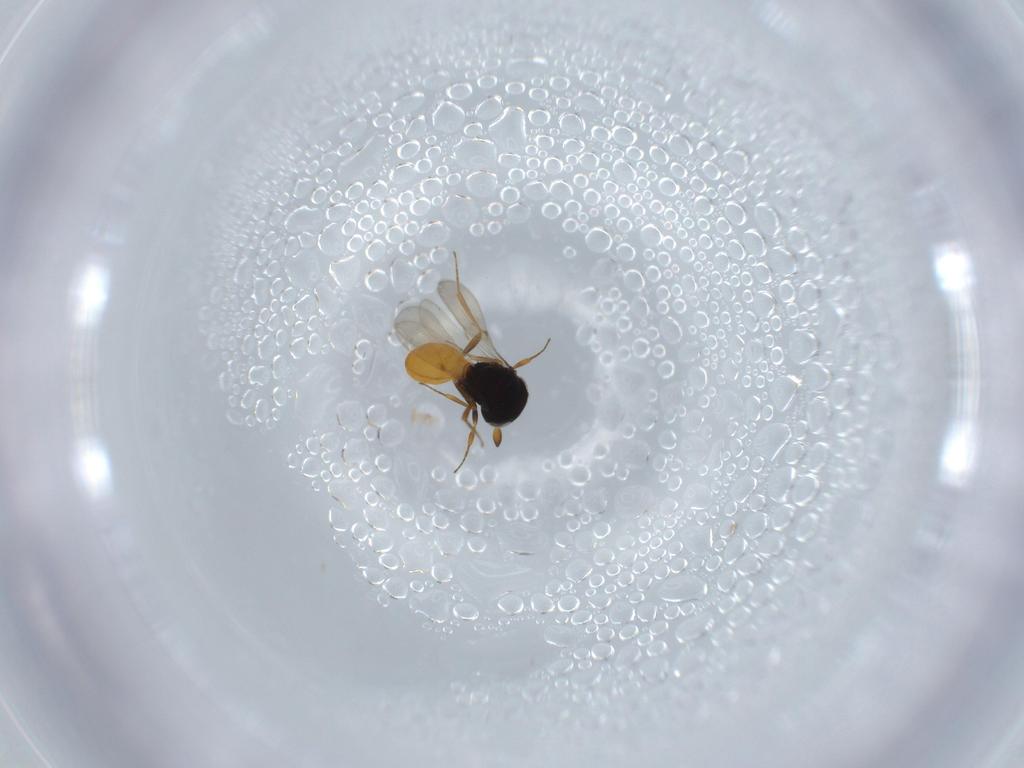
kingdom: Animalia
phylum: Arthropoda
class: Insecta
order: Hymenoptera
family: Scelionidae
